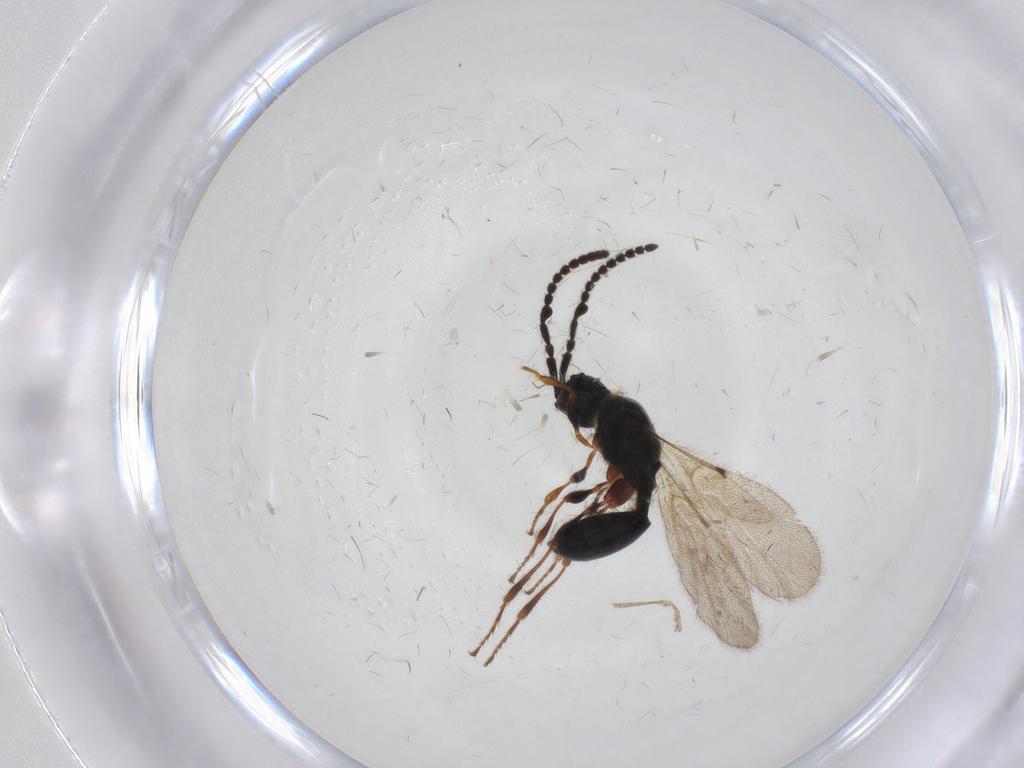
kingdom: Animalia
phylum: Arthropoda
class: Insecta
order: Hymenoptera
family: Diapriidae
